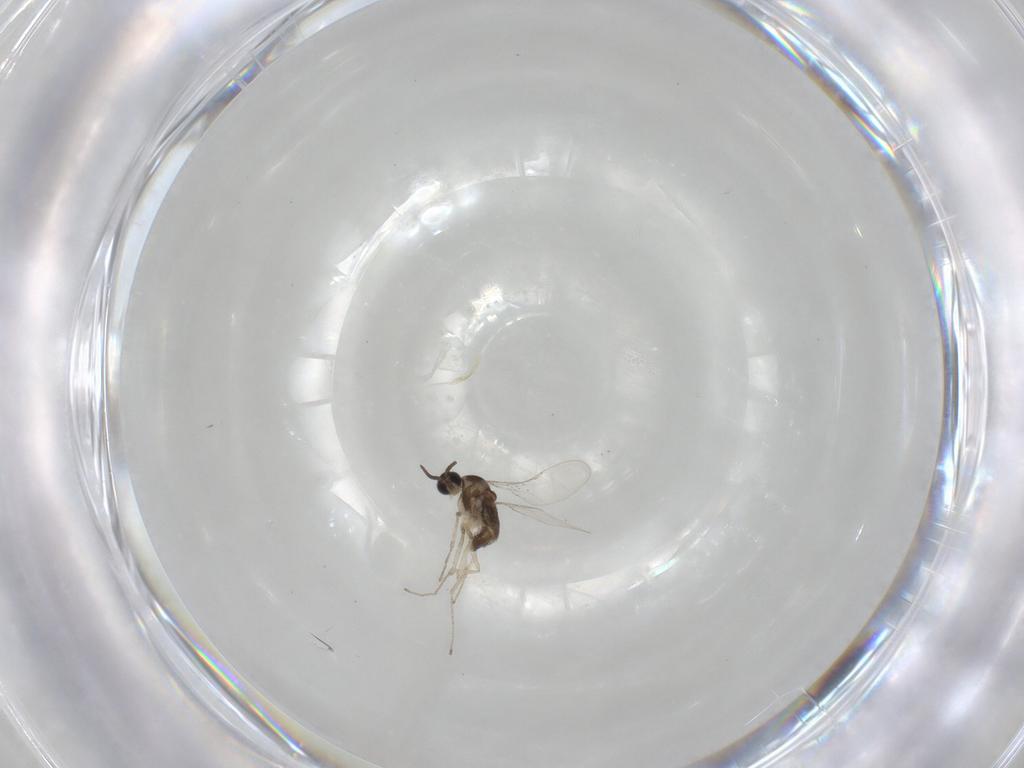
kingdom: Animalia
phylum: Arthropoda
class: Insecta
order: Diptera
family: Cecidomyiidae
